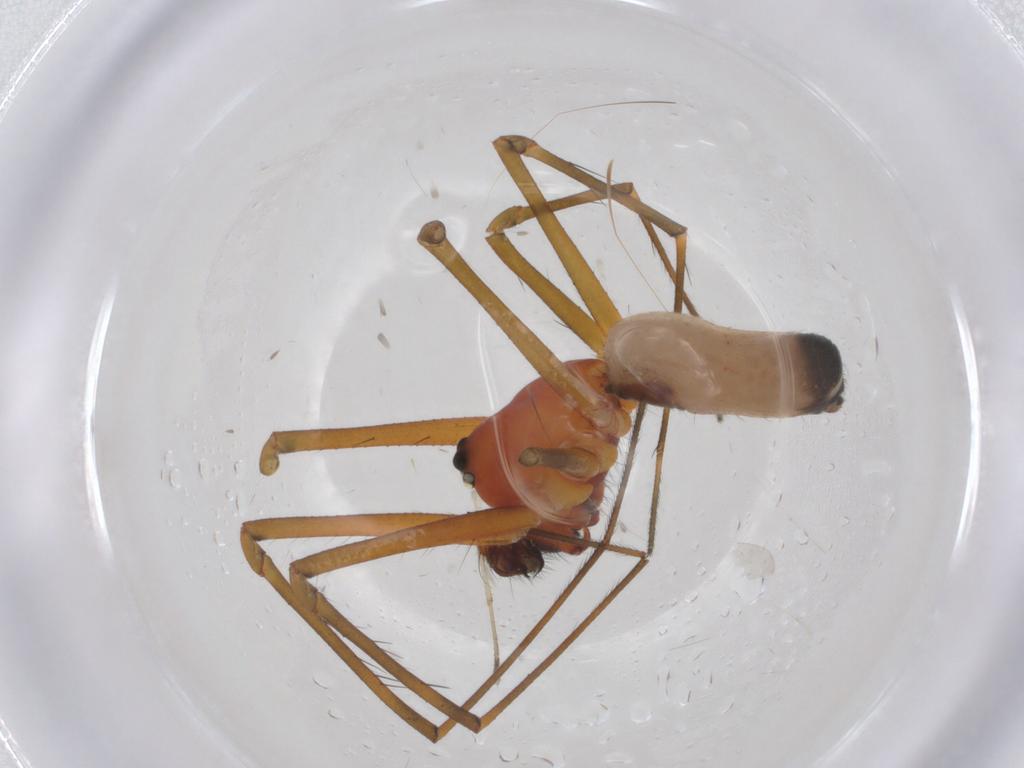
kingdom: Animalia
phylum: Arthropoda
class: Arachnida
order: Araneae
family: Linyphiidae
